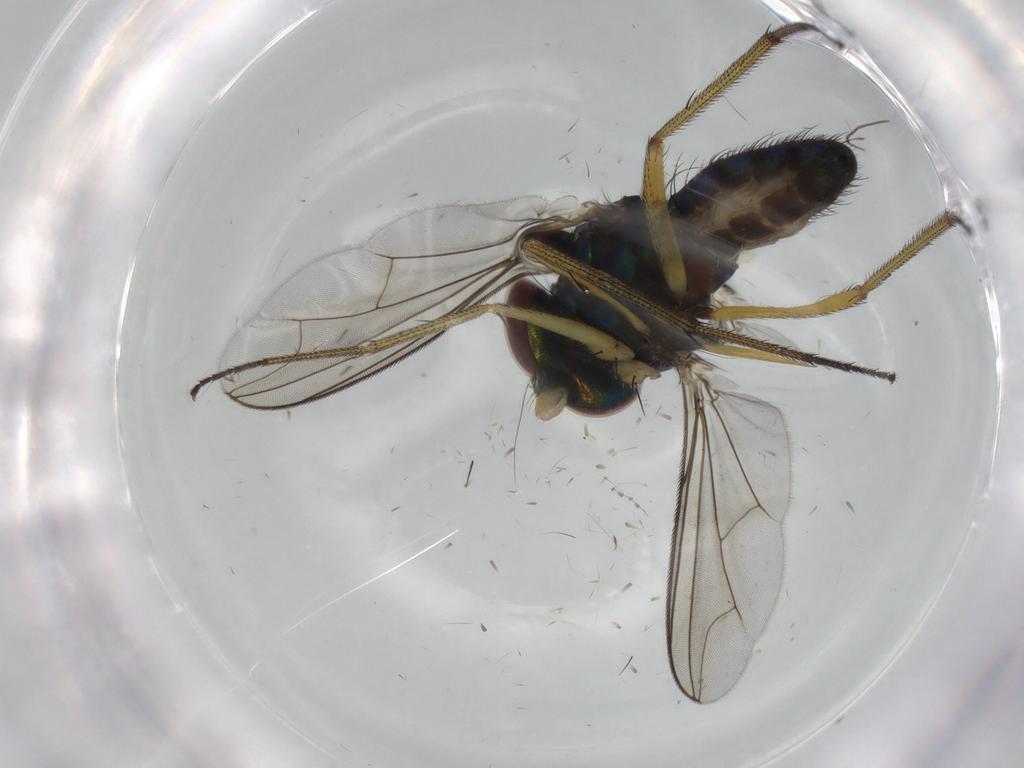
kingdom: Animalia
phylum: Arthropoda
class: Insecta
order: Diptera
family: Dolichopodidae
